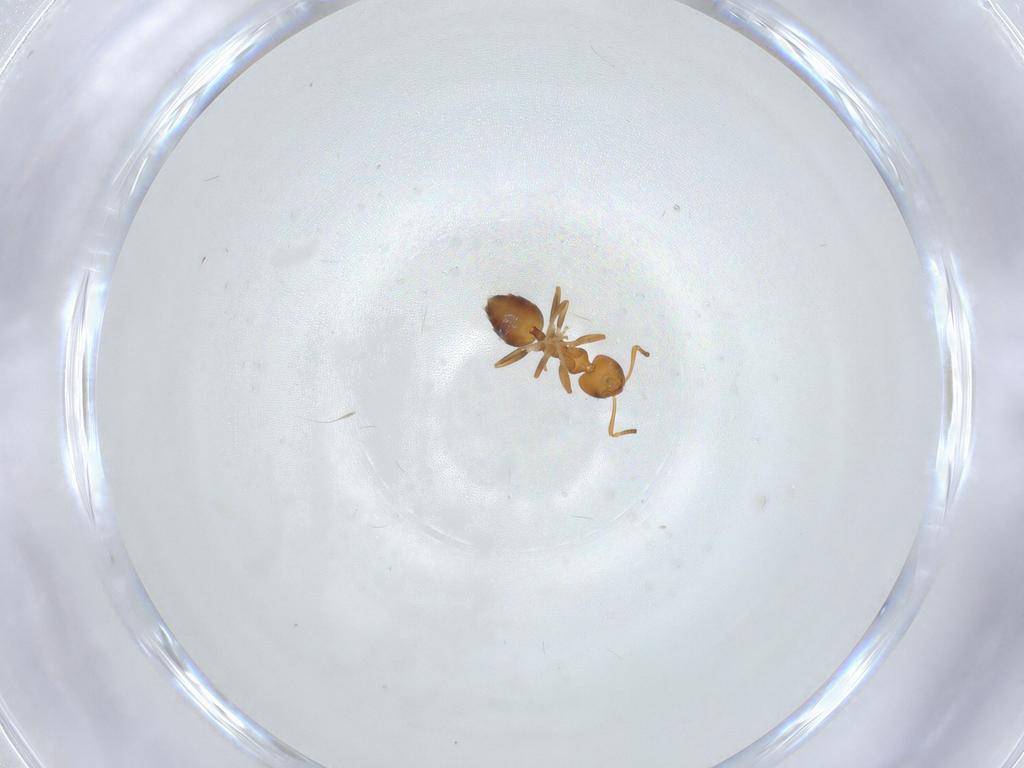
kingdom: Animalia
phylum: Arthropoda
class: Insecta
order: Hymenoptera
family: Formicidae
